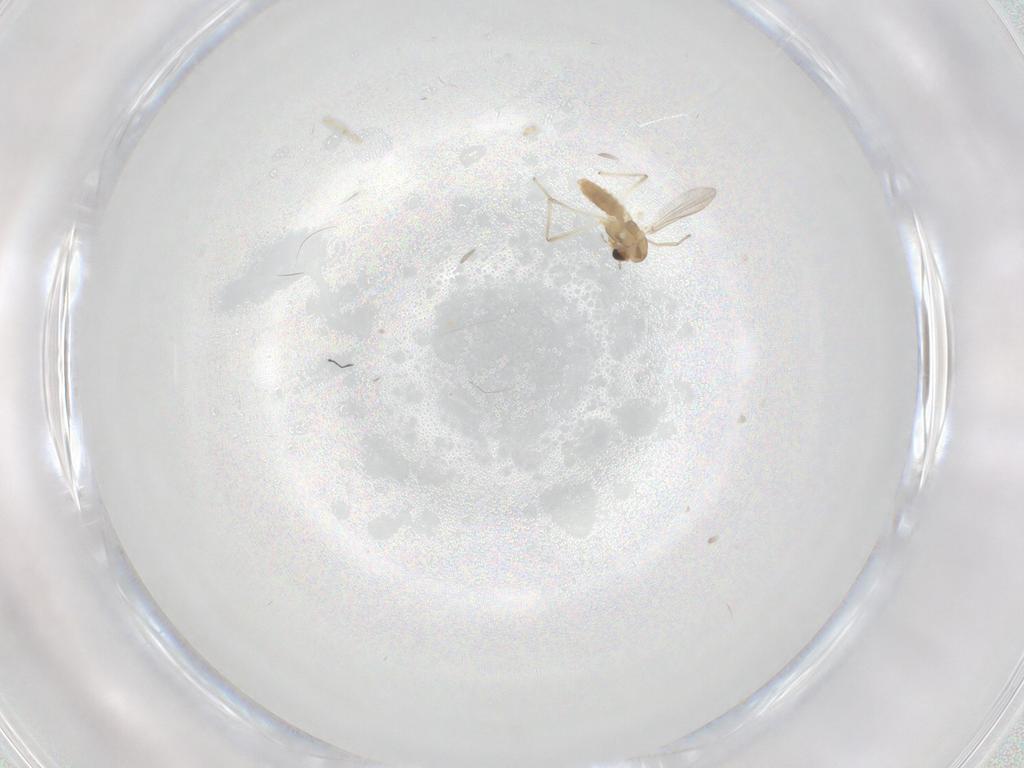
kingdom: Animalia
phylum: Arthropoda
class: Insecta
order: Diptera
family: Chironomidae
